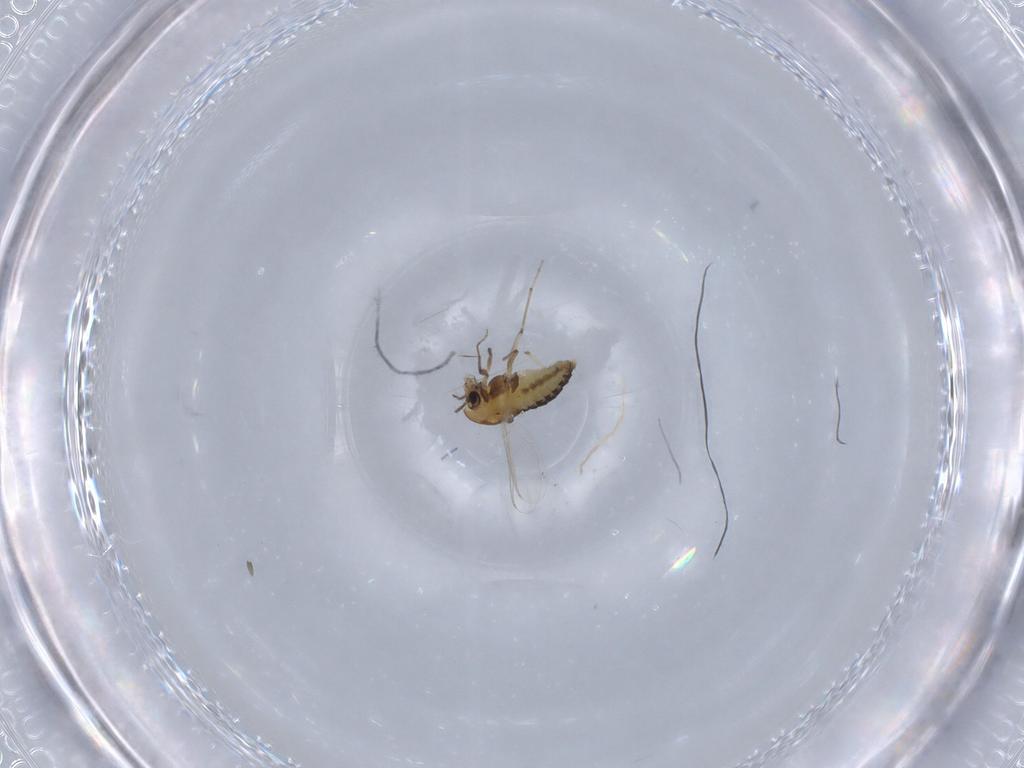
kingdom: Animalia
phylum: Arthropoda
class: Insecta
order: Diptera
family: Chironomidae
